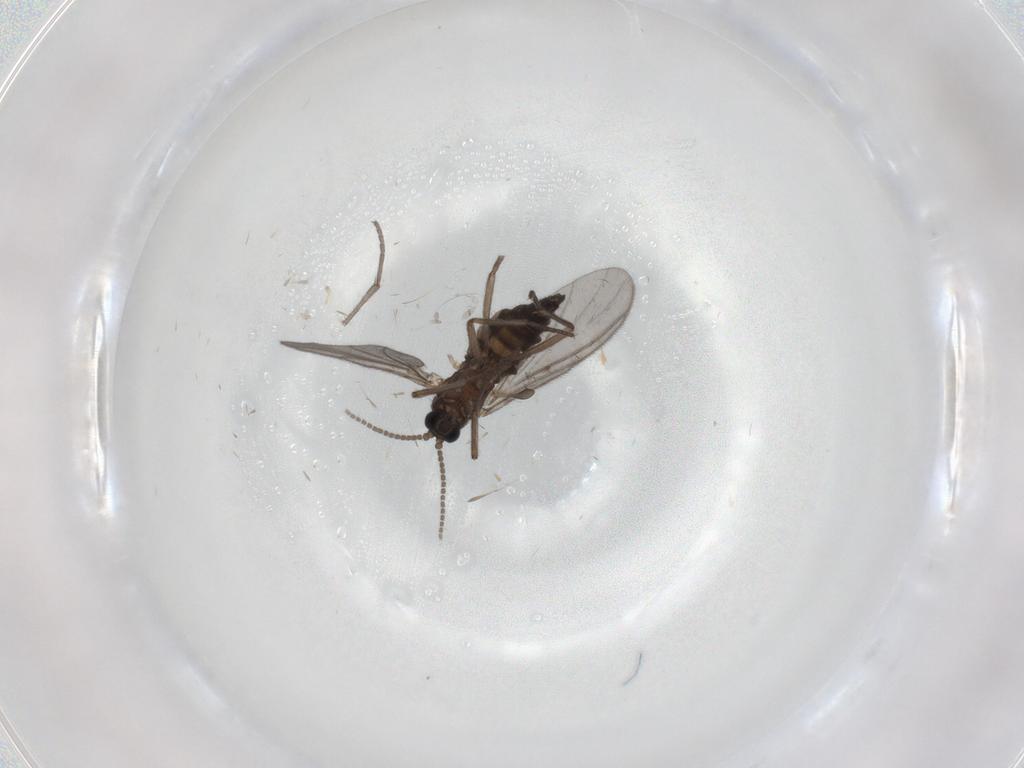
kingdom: Animalia
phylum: Arthropoda
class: Insecta
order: Diptera
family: Sciaridae
